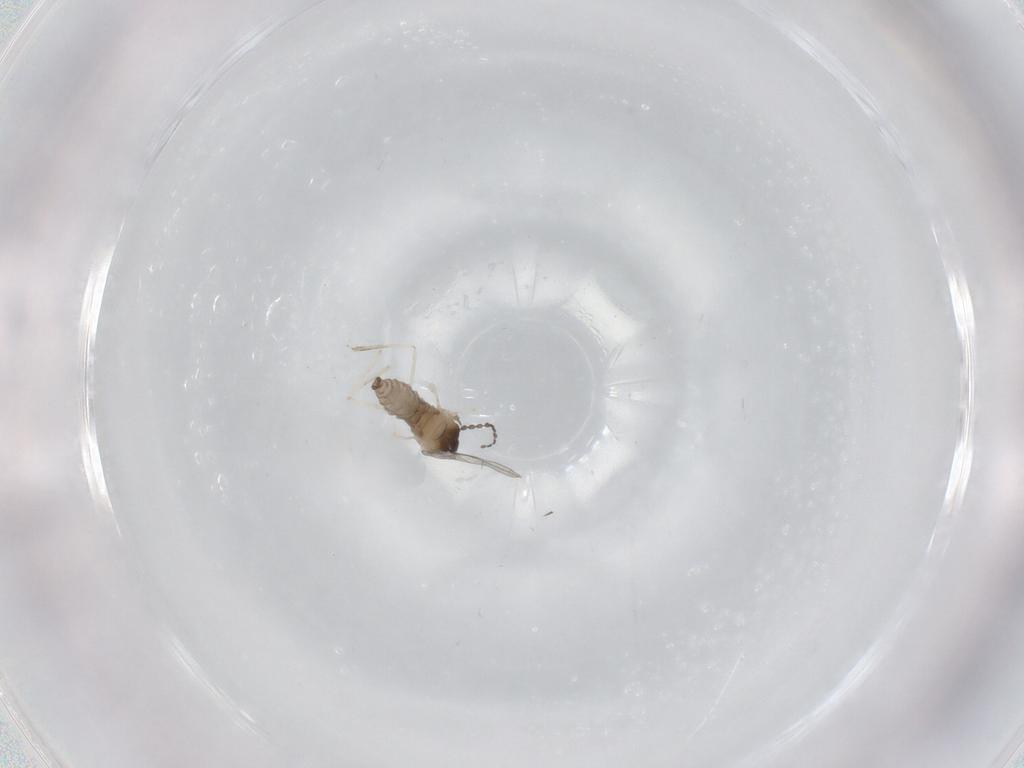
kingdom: Animalia
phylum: Arthropoda
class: Insecta
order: Diptera
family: Cecidomyiidae
